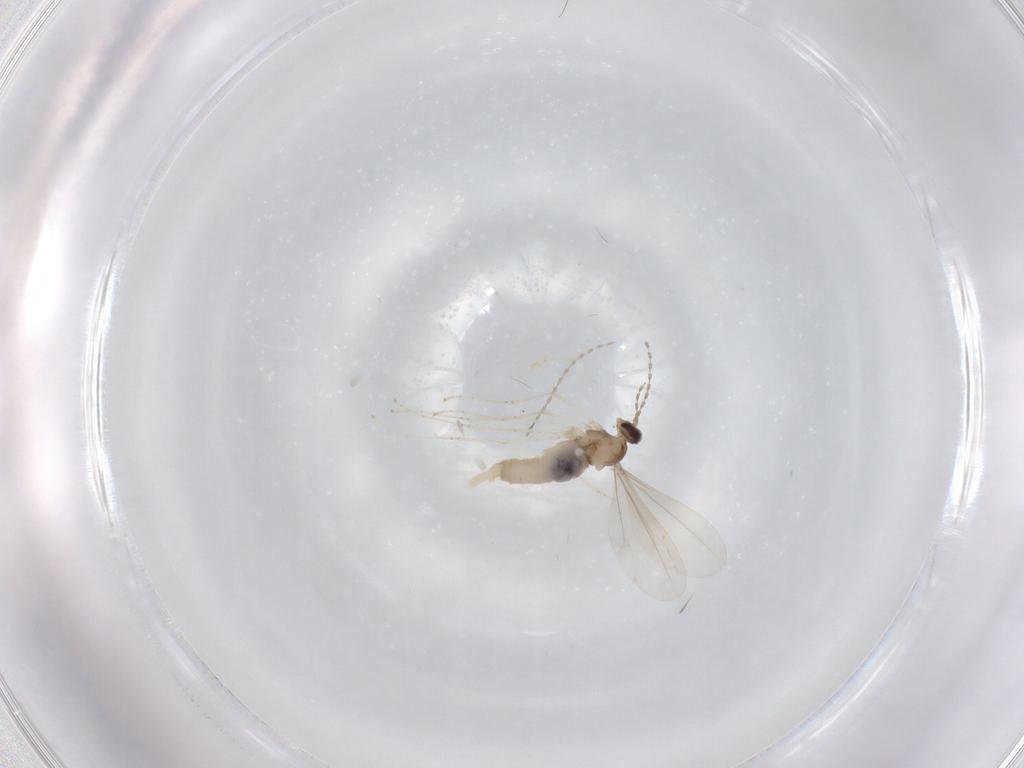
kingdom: Animalia
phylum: Arthropoda
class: Insecta
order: Diptera
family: Cecidomyiidae
